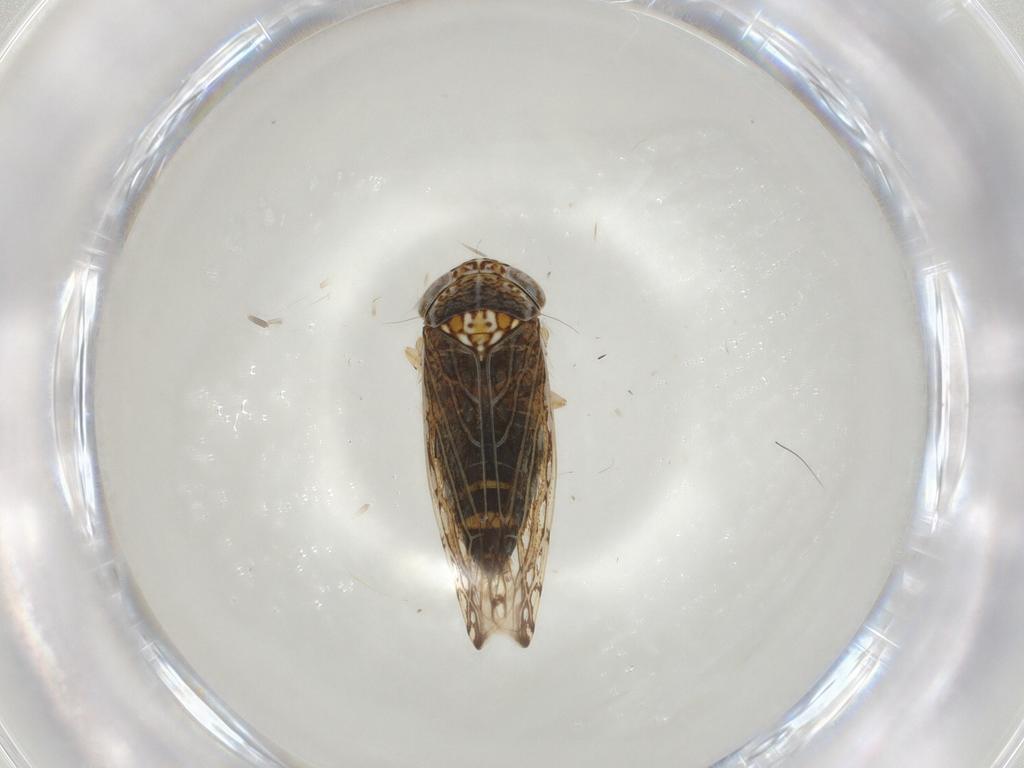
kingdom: Animalia
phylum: Arthropoda
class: Insecta
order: Hemiptera
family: Cicadellidae
